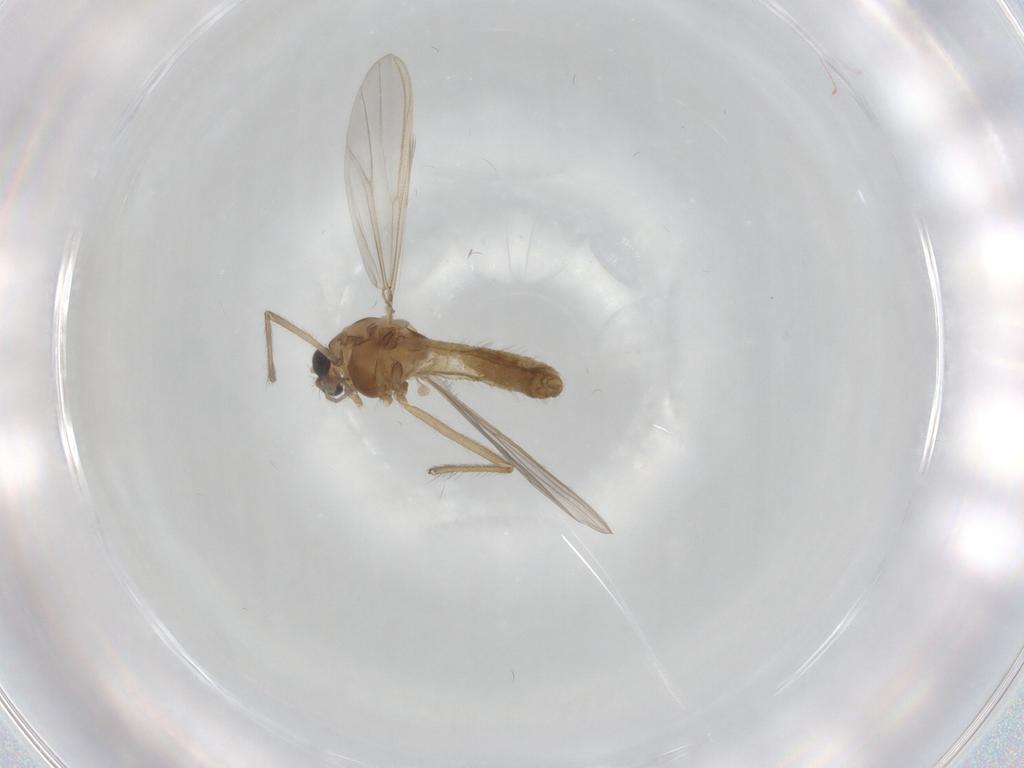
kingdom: Animalia
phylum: Arthropoda
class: Insecta
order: Diptera
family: Chironomidae
